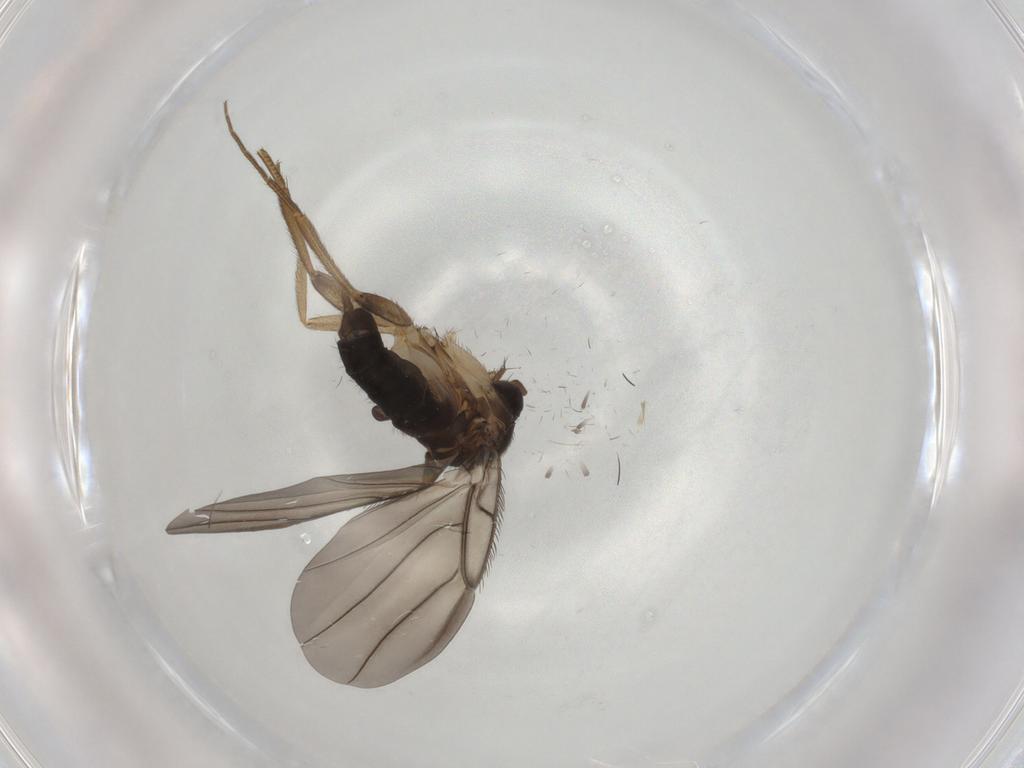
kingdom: Animalia
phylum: Arthropoda
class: Insecta
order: Diptera
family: Phoridae
